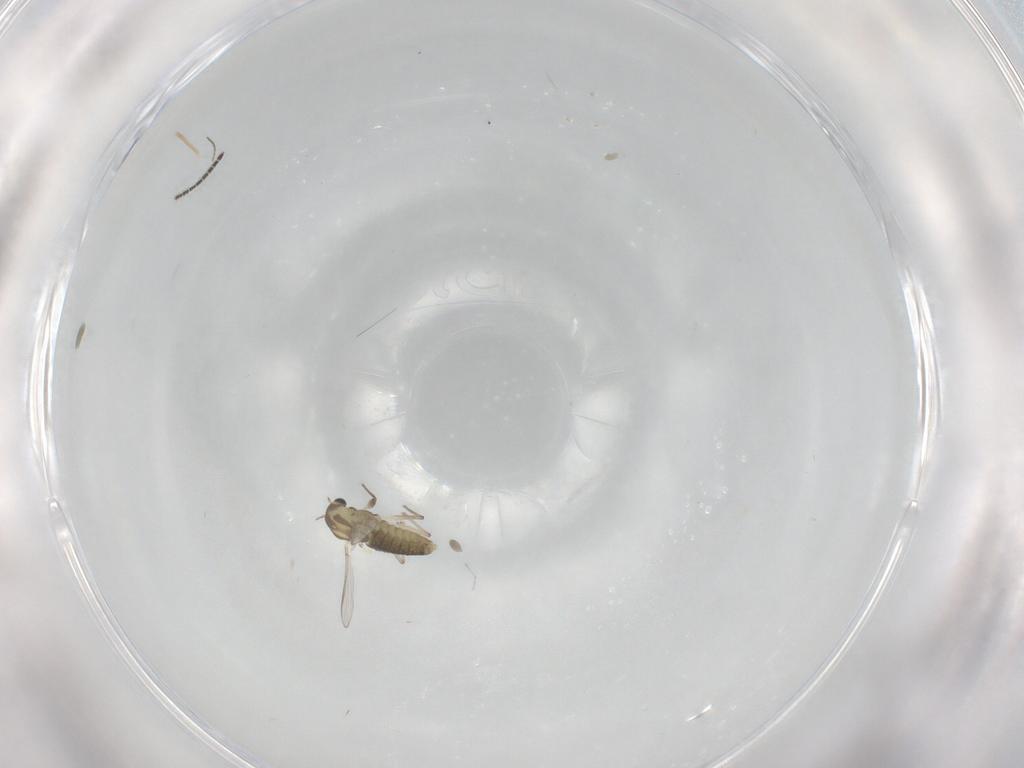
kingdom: Animalia
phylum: Arthropoda
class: Insecta
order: Diptera
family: Chironomidae
